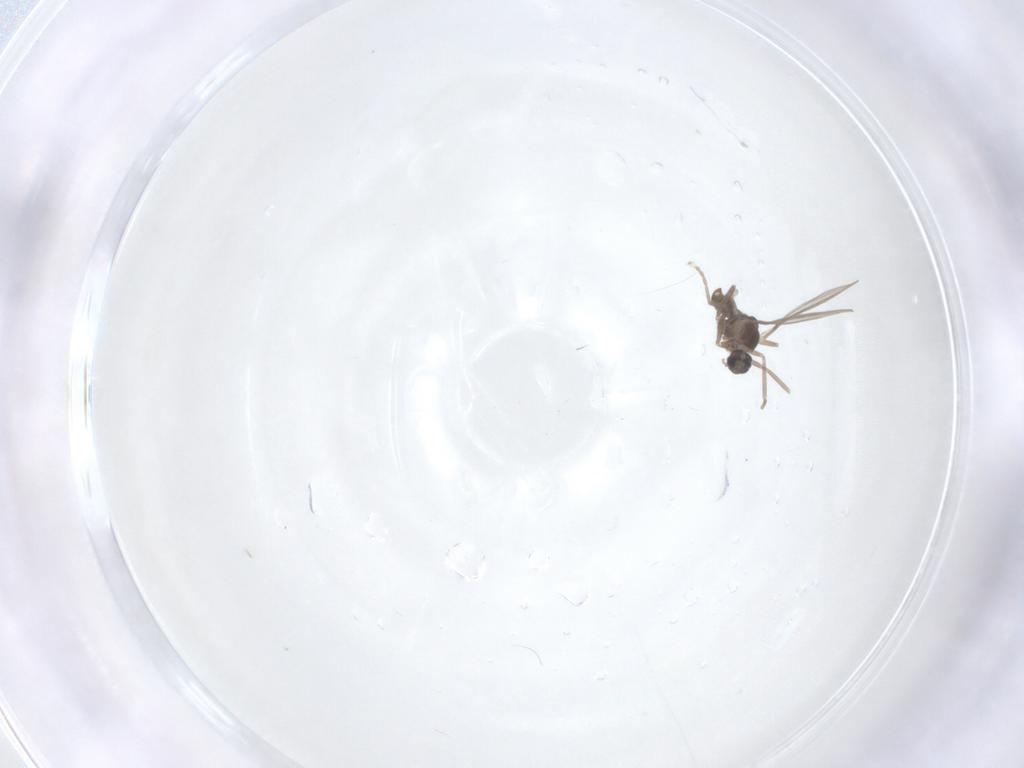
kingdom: Animalia
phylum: Arthropoda
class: Insecta
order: Diptera
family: Cecidomyiidae
